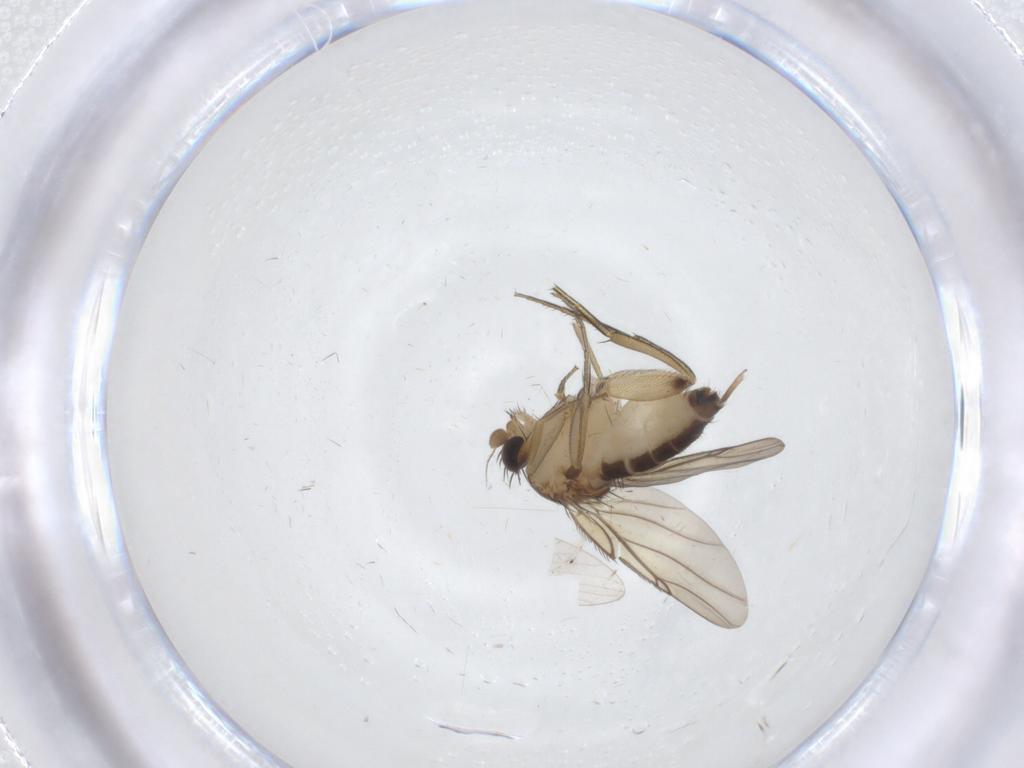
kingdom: Animalia
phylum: Arthropoda
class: Insecta
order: Diptera
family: Phoridae
